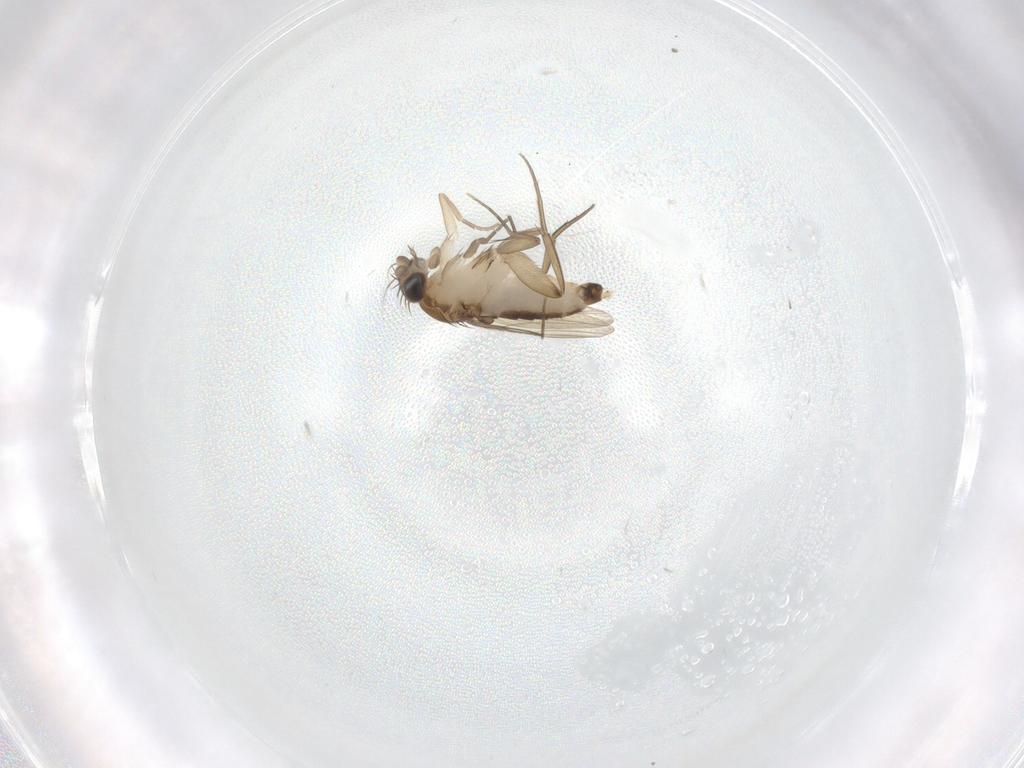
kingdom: Animalia
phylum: Arthropoda
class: Insecta
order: Diptera
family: Phoridae
